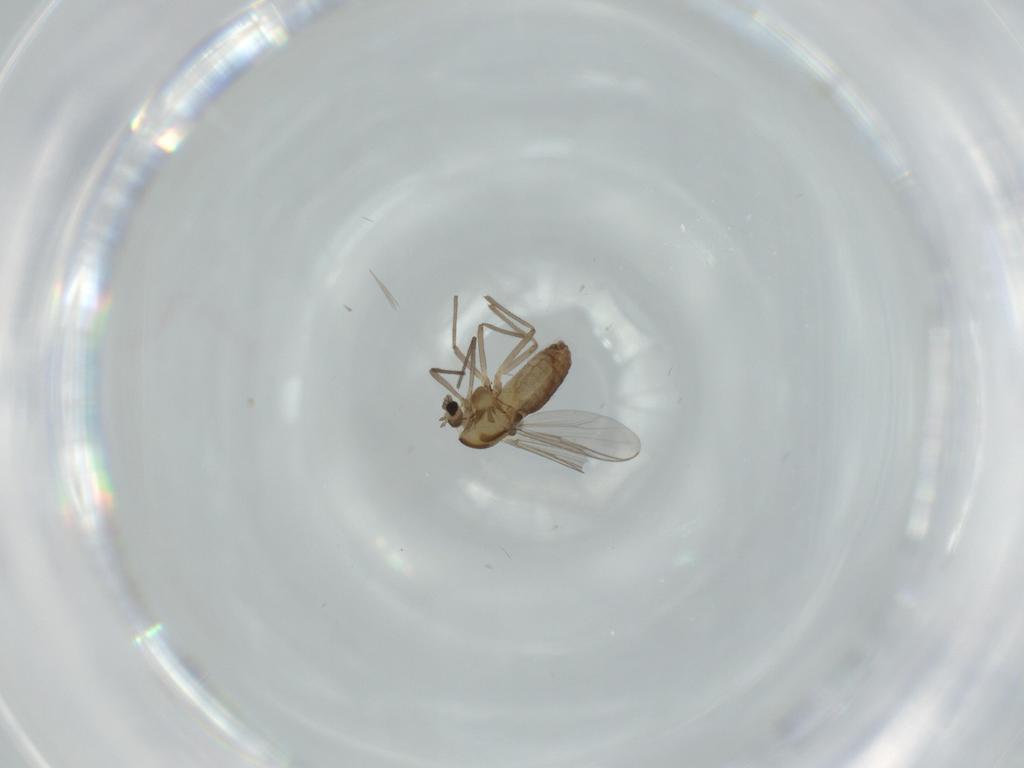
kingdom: Animalia
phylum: Arthropoda
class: Insecta
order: Diptera
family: Chironomidae
